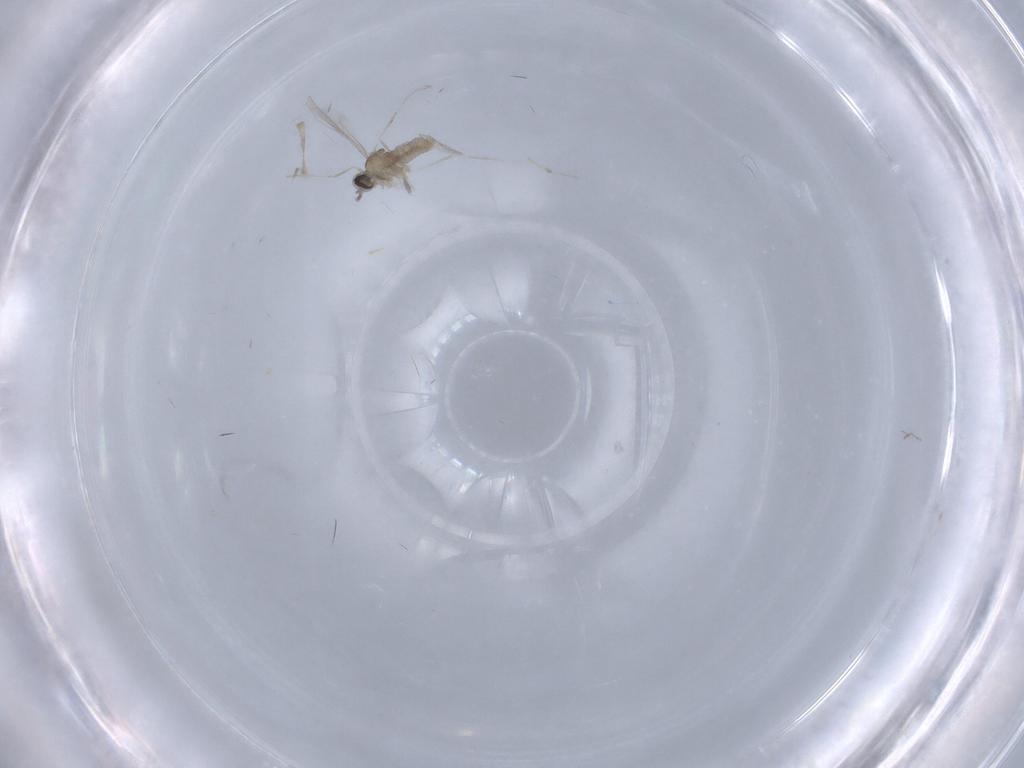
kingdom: Animalia
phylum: Arthropoda
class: Insecta
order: Diptera
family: Cecidomyiidae
